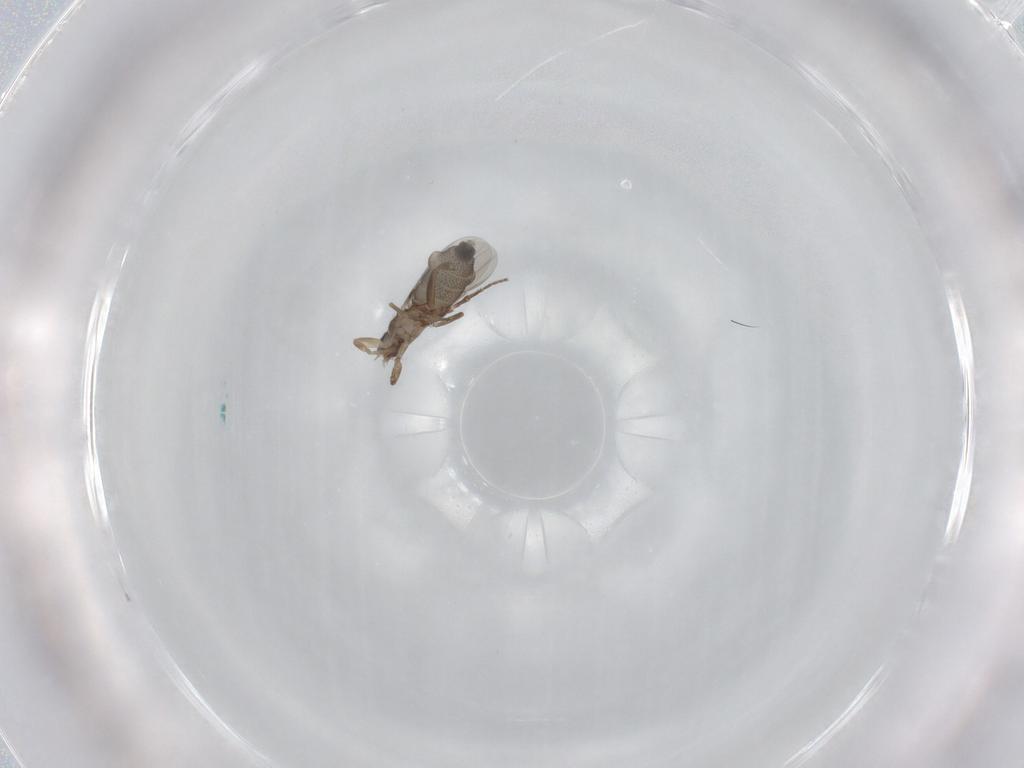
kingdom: Animalia
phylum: Arthropoda
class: Insecta
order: Diptera
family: Phoridae
